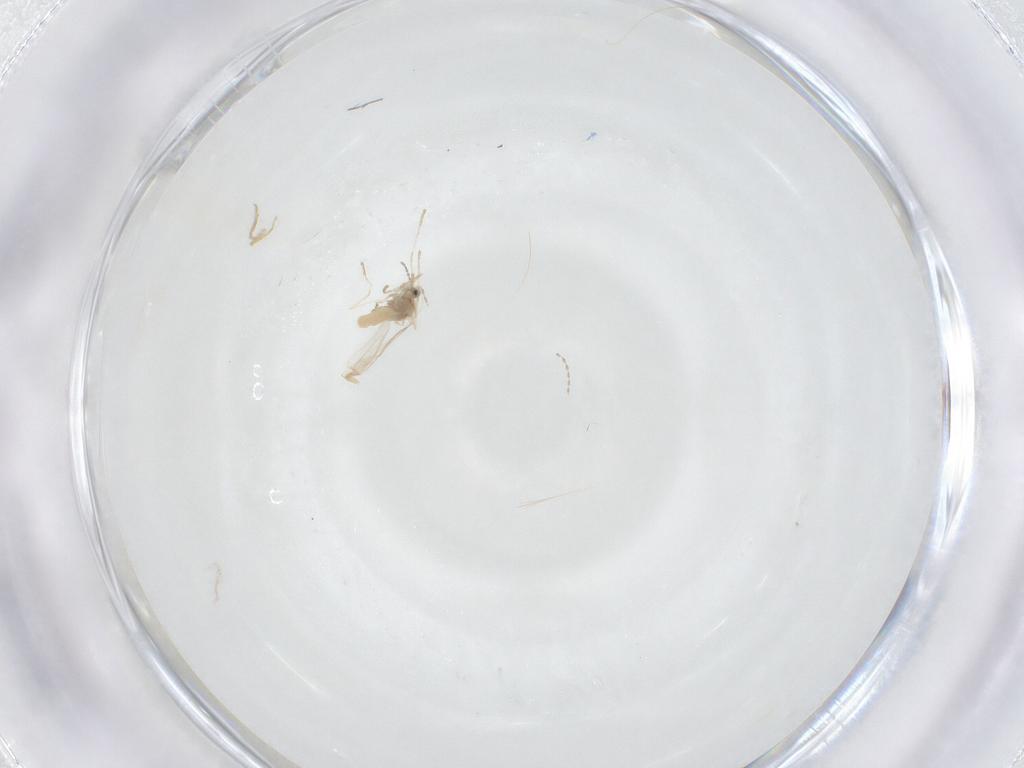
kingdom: Animalia
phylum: Arthropoda
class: Insecta
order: Diptera
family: Cecidomyiidae
